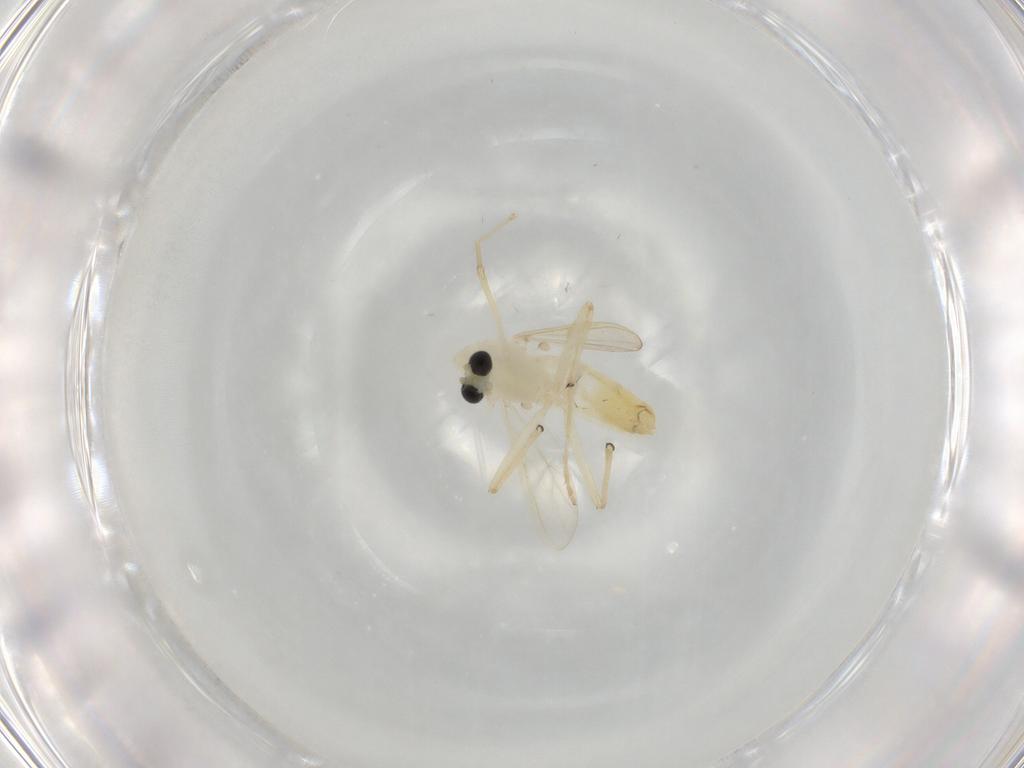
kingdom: Animalia
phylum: Arthropoda
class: Insecta
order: Diptera
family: Chironomidae
